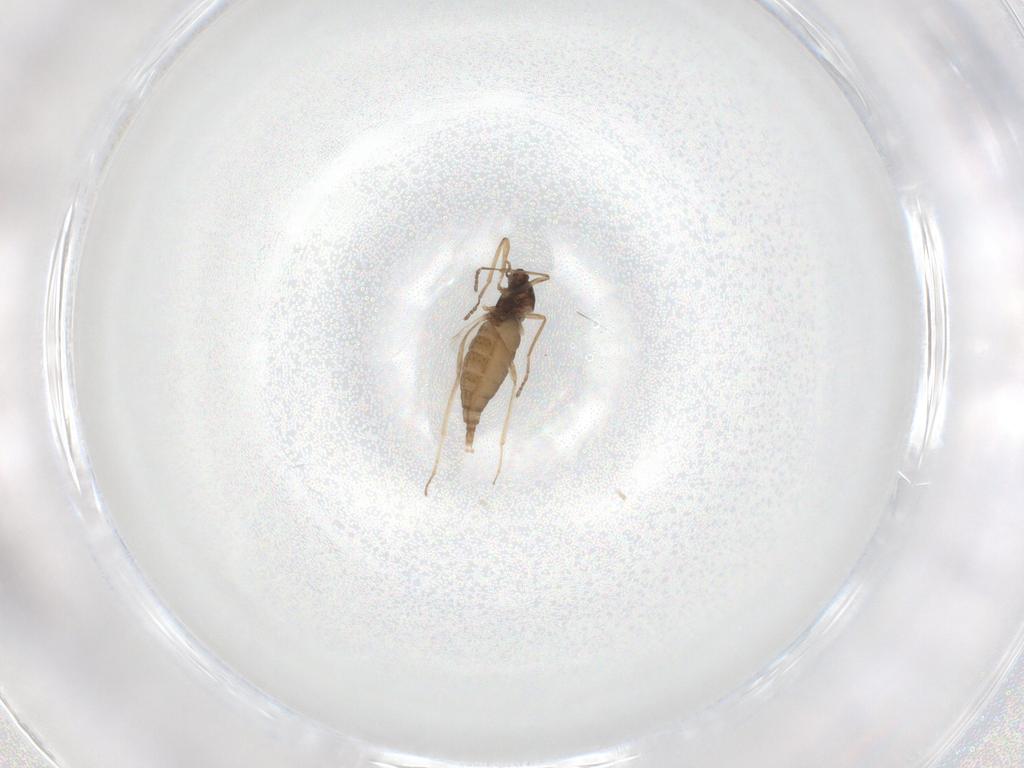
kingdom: Animalia
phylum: Arthropoda
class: Insecta
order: Diptera
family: Cecidomyiidae
